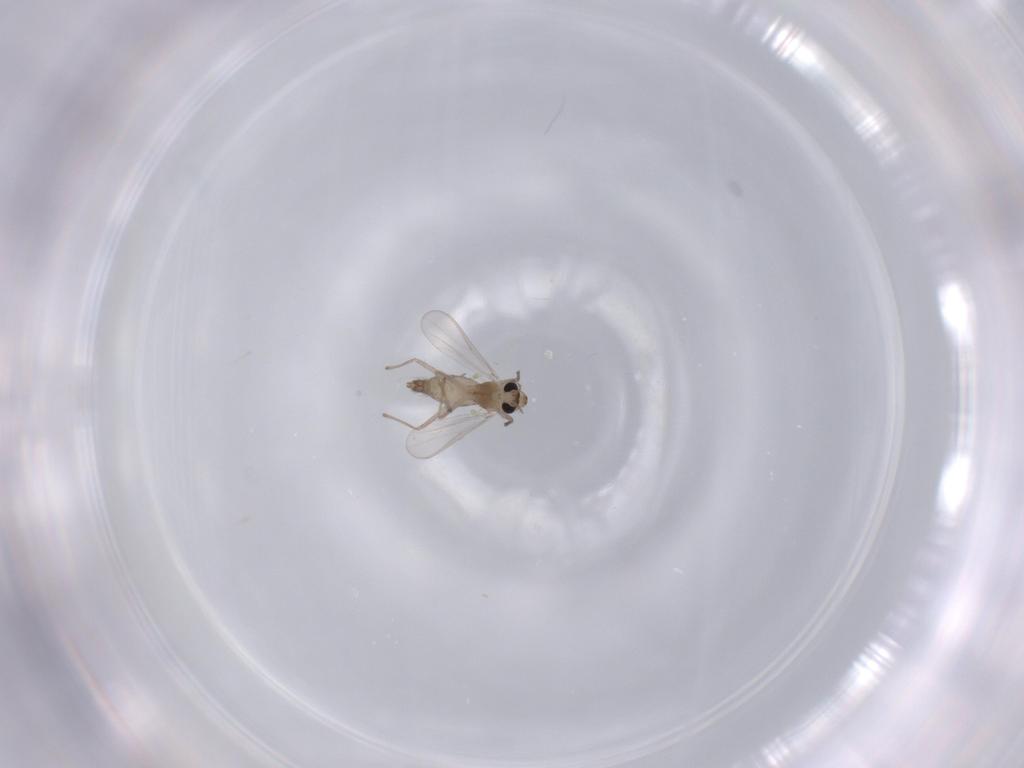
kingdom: Animalia
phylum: Arthropoda
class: Insecta
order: Diptera
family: Chironomidae
